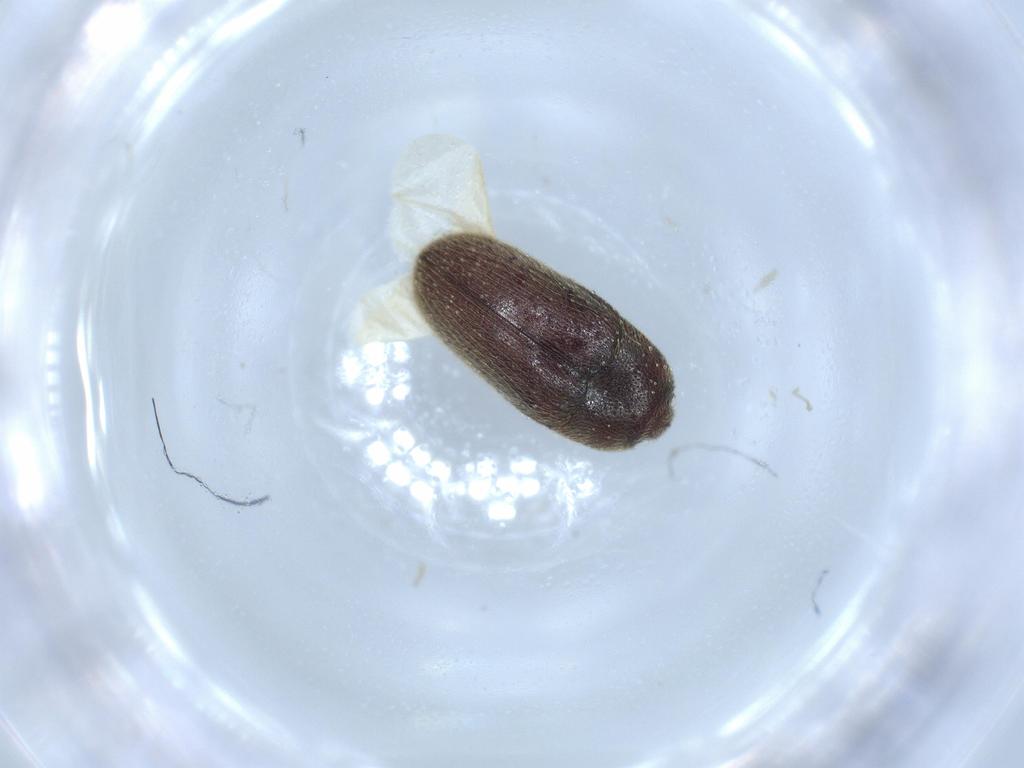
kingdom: Animalia
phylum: Arthropoda
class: Insecta
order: Coleoptera
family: Throscidae
